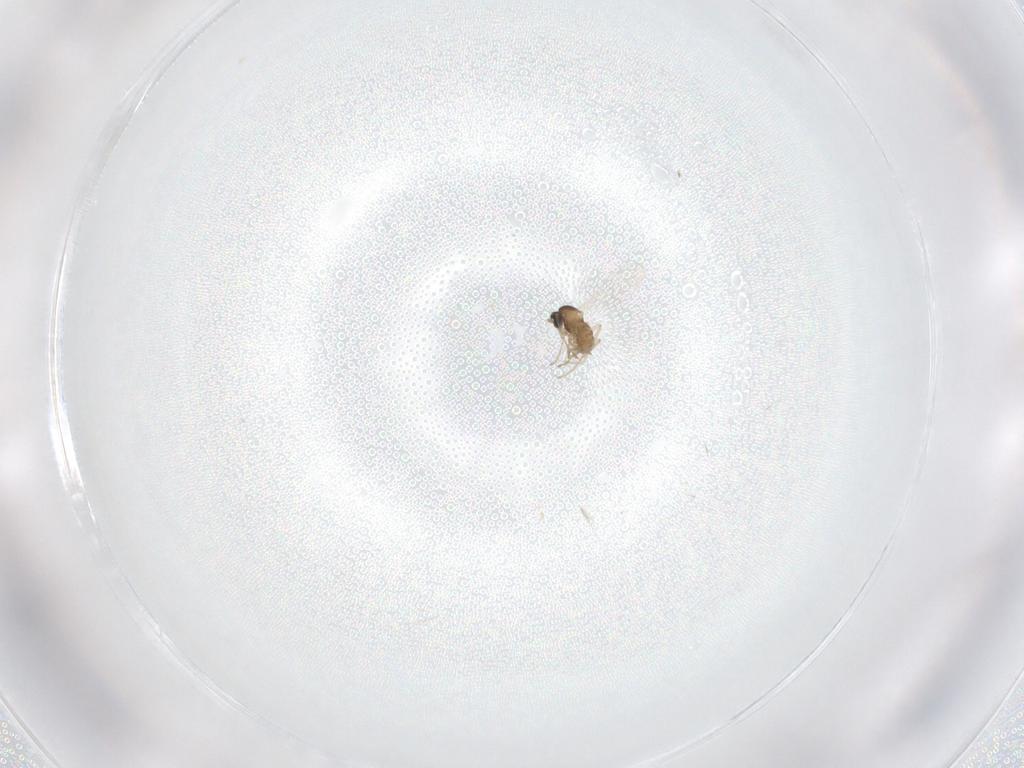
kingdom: Animalia
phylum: Arthropoda
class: Insecta
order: Diptera
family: Cecidomyiidae
